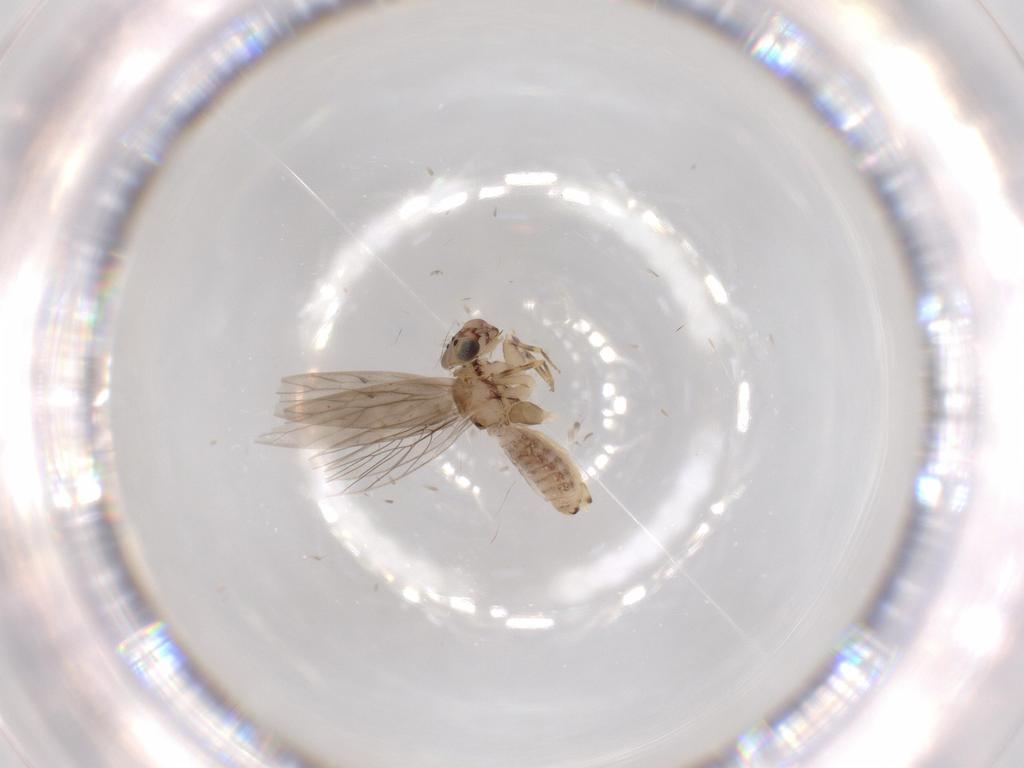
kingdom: Animalia
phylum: Arthropoda
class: Insecta
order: Psocodea
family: Lepidopsocidae
